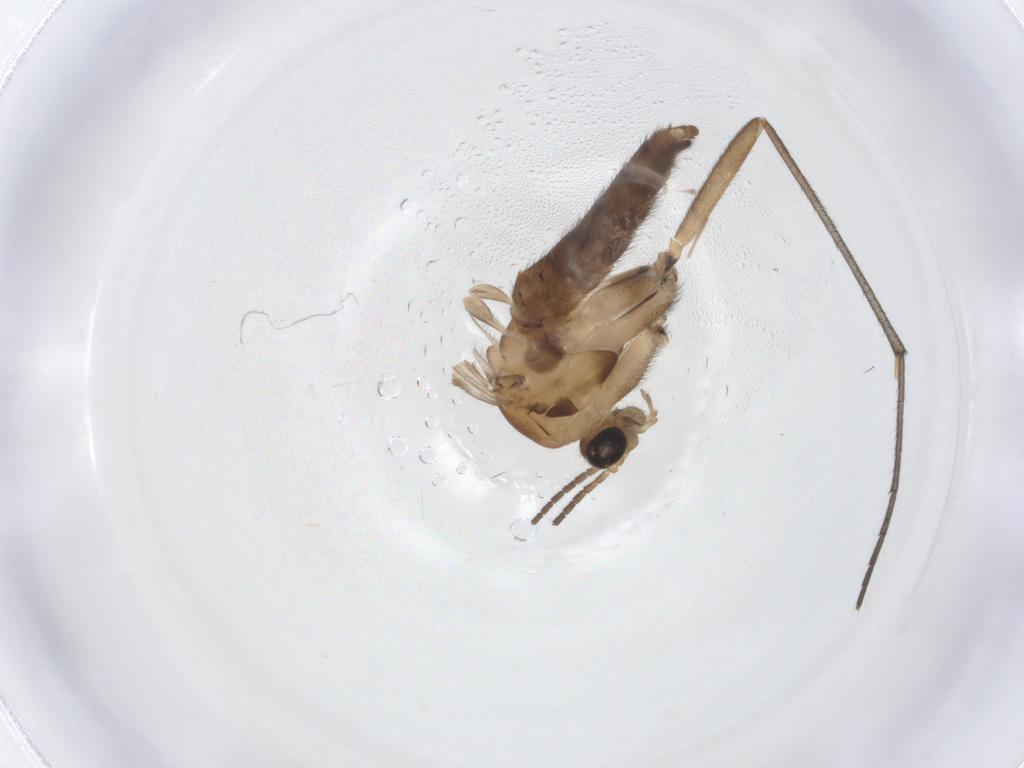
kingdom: Animalia
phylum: Arthropoda
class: Insecta
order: Diptera
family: Sciaridae
